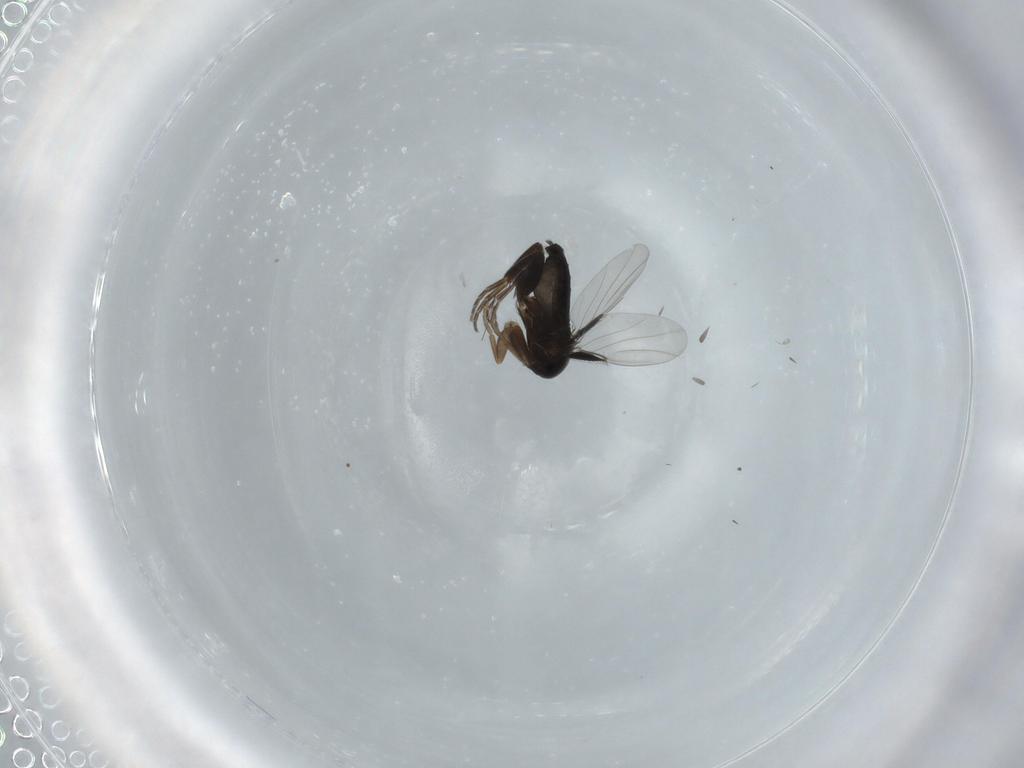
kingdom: Animalia
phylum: Arthropoda
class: Insecta
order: Diptera
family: Phoridae
